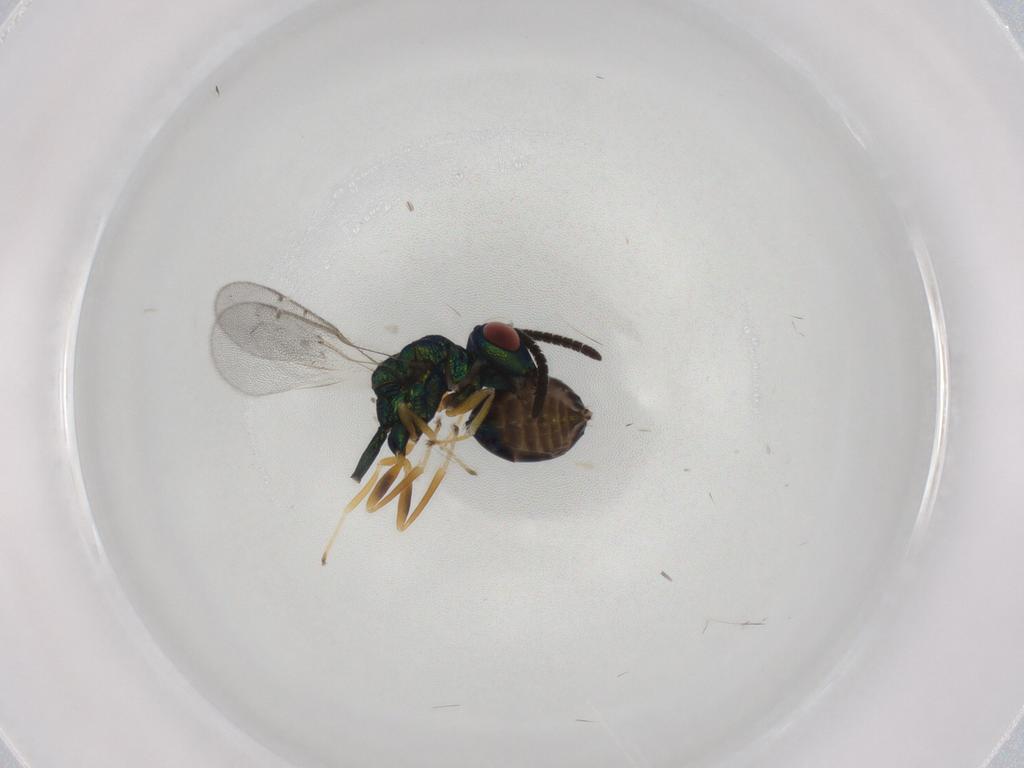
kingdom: Animalia
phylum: Arthropoda
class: Insecta
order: Hymenoptera
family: Eucharitidae
